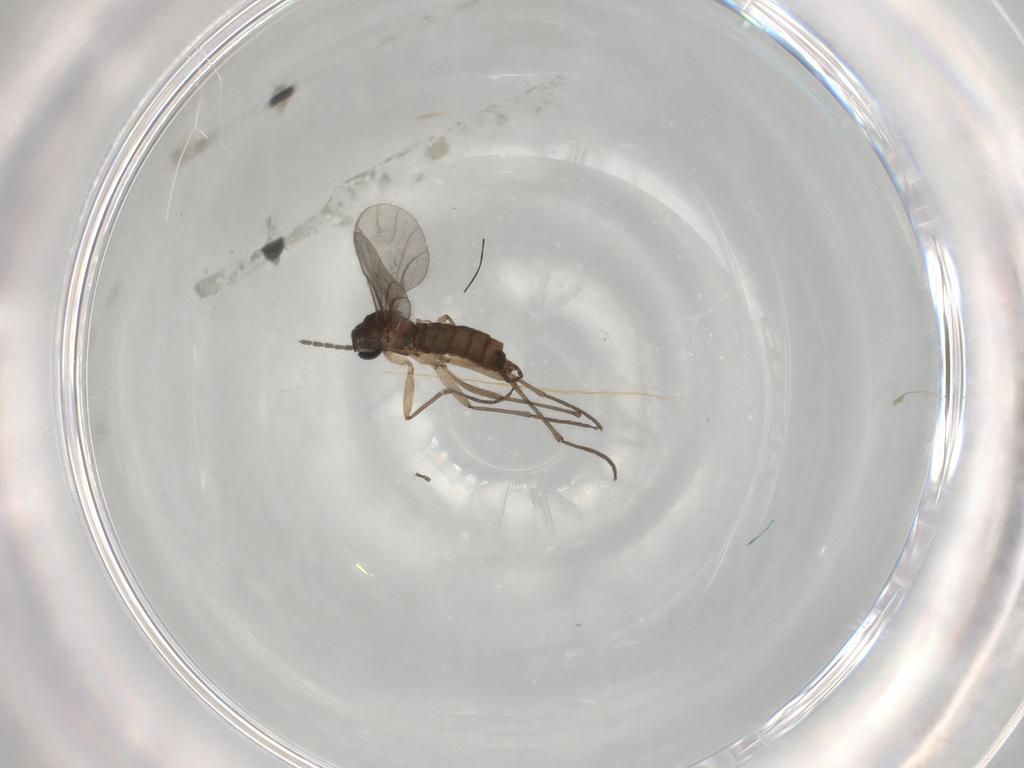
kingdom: Animalia
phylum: Arthropoda
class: Insecta
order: Diptera
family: Sciaridae
